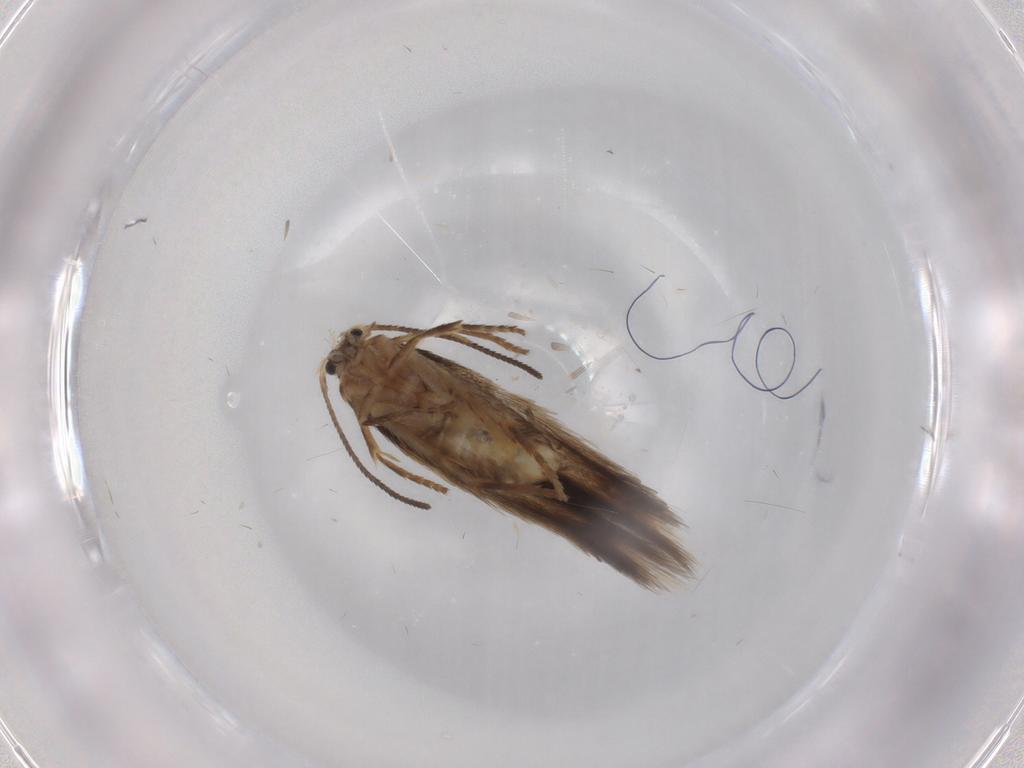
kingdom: Animalia
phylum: Arthropoda
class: Insecta
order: Lepidoptera
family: Nepticulidae
